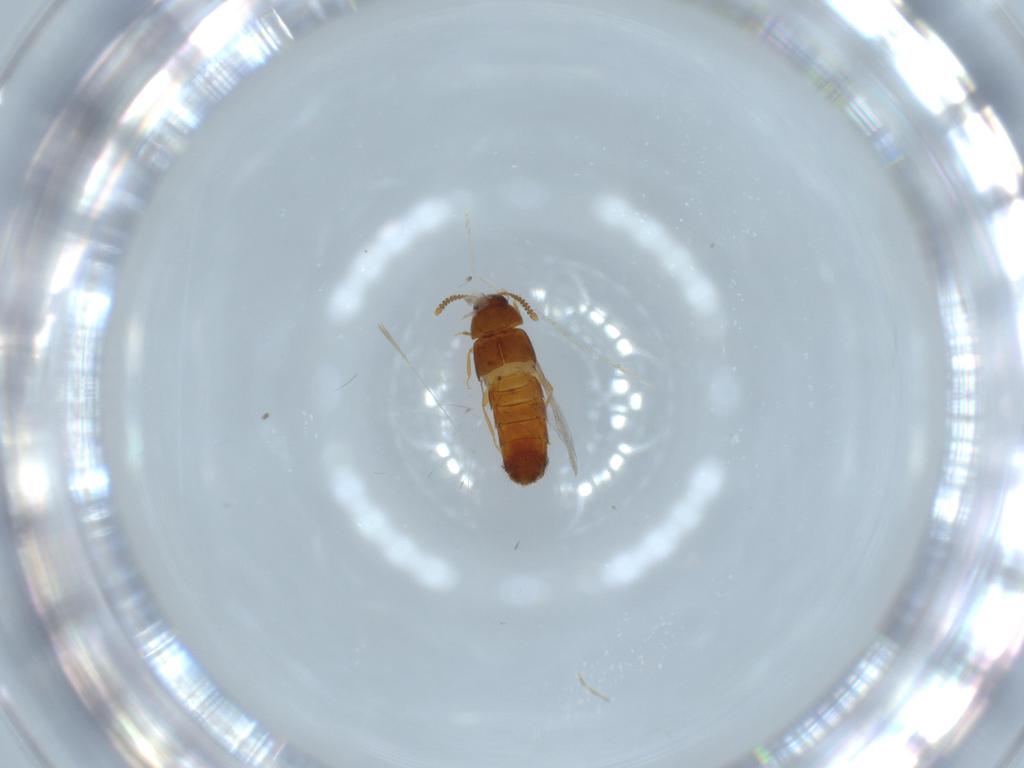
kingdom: Animalia
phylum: Arthropoda
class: Insecta
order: Coleoptera
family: Staphylinidae
